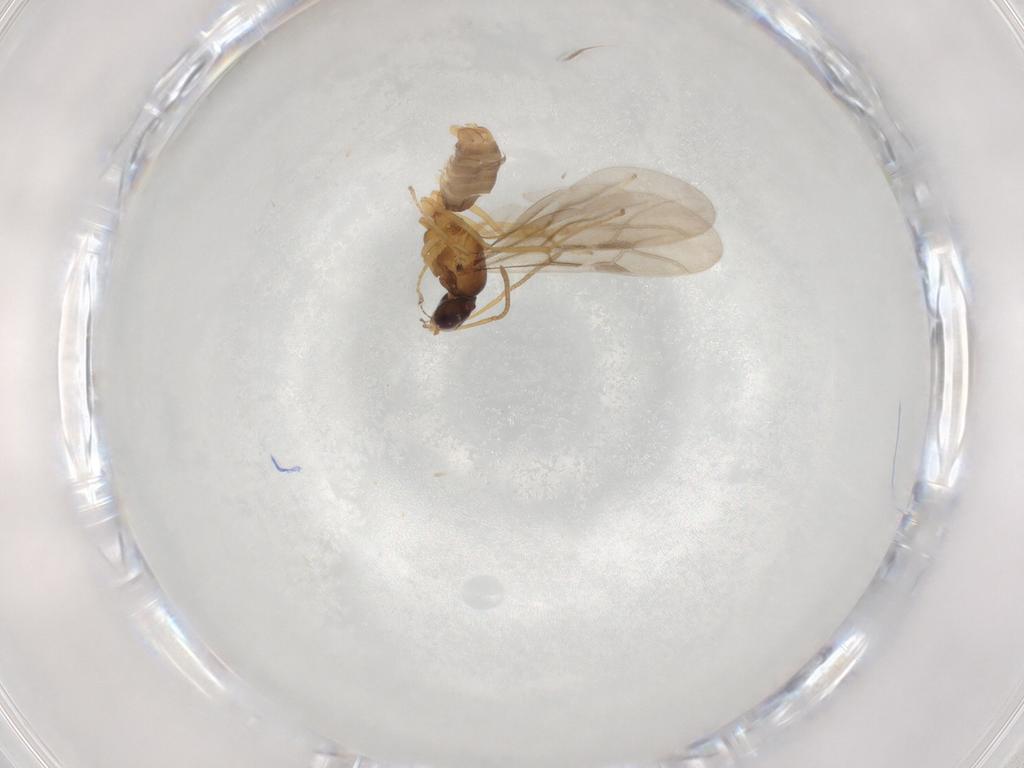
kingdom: Animalia
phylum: Arthropoda
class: Insecta
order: Hymenoptera
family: Formicidae
